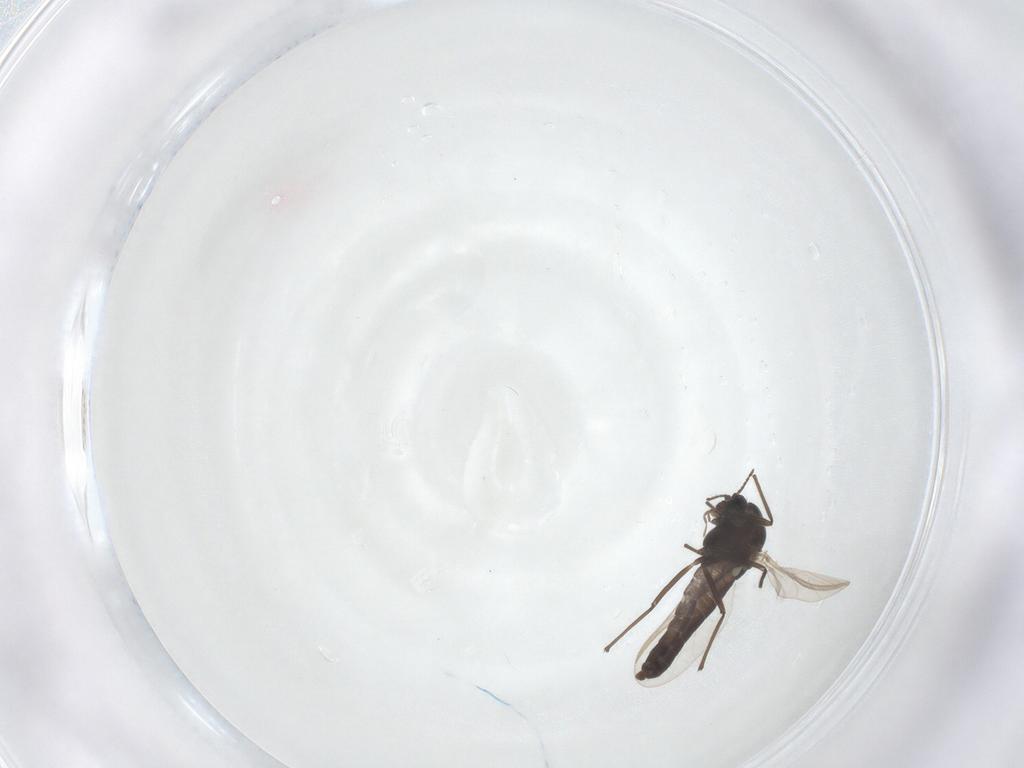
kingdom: Animalia
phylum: Arthropoda
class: Insecta
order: Diptera
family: Chironomidae
